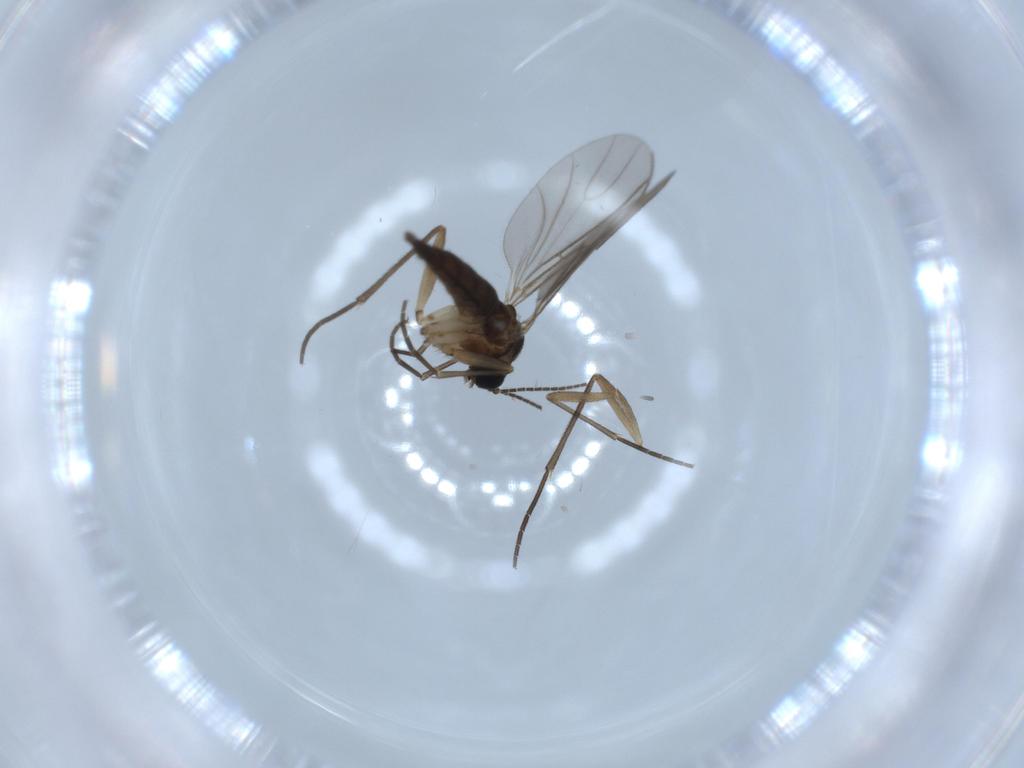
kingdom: Animalia
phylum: Arthropoda
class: Insecta
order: Diptera
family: Sciaridae
